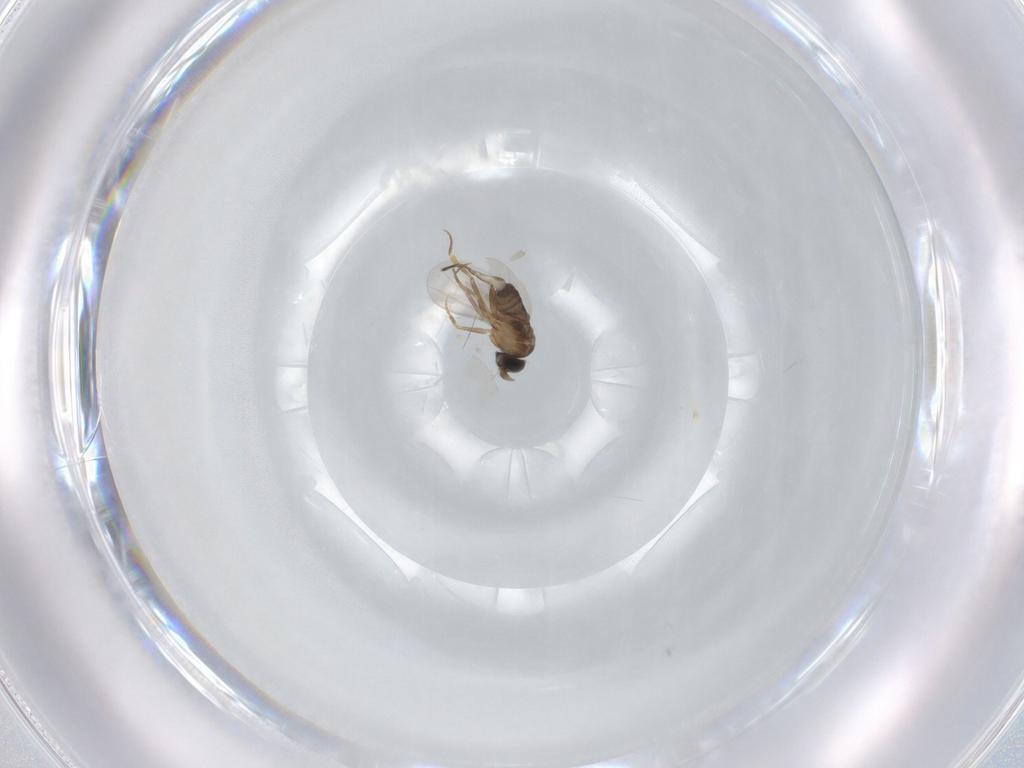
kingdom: Animalia
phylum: Arthropoda
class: Insecta
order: Diptera
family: Phoridae
